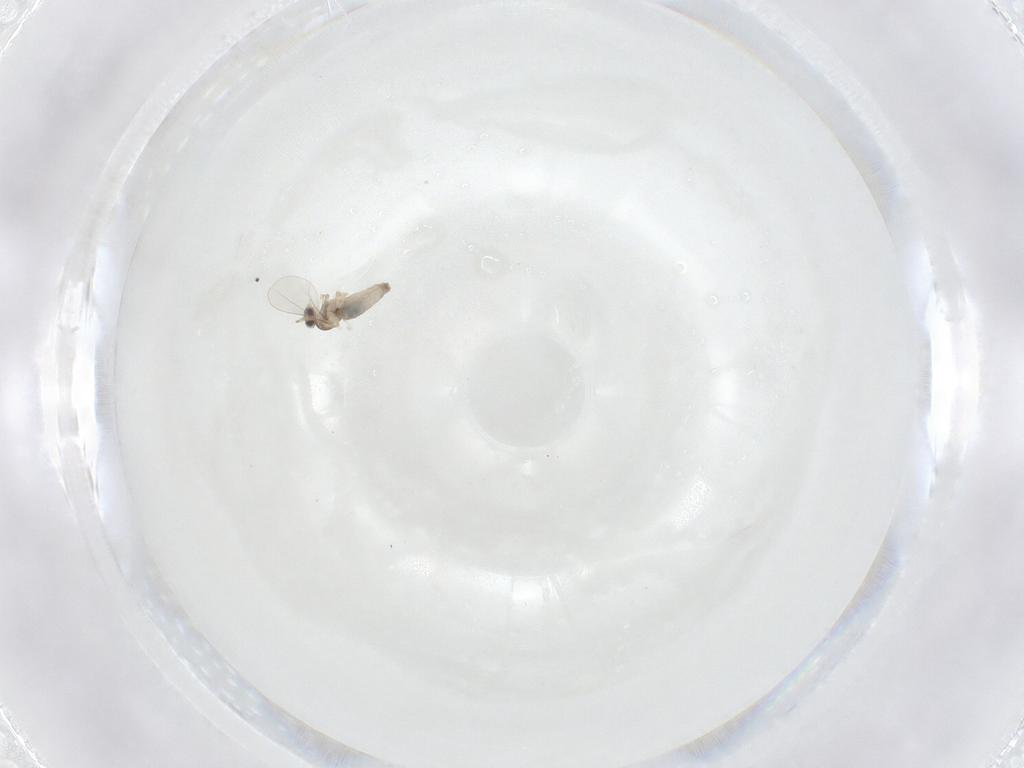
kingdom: Animalia
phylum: Arthropoda
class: Insecta
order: Diptera
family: Cecidomyiidae
